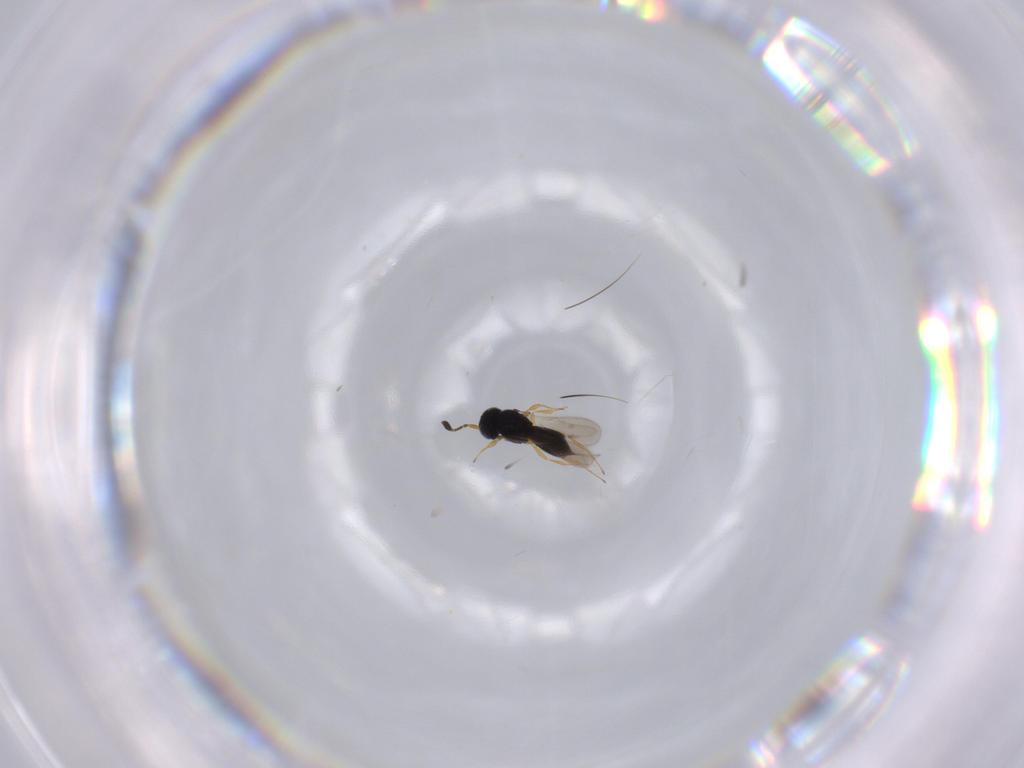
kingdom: Animalia
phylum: Arthropoda
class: Insecta
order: Hymenoptera
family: Scelionidae
